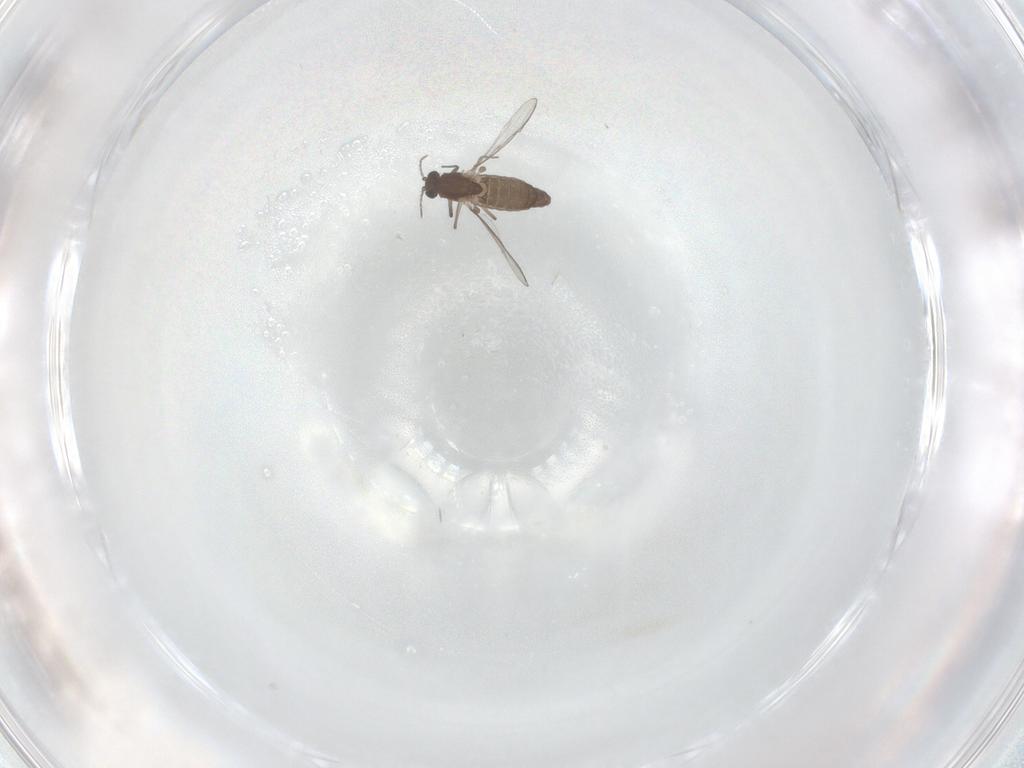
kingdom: Animalia
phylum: Arthropoda
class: Insecta
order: Diptera
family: Chironomidae
